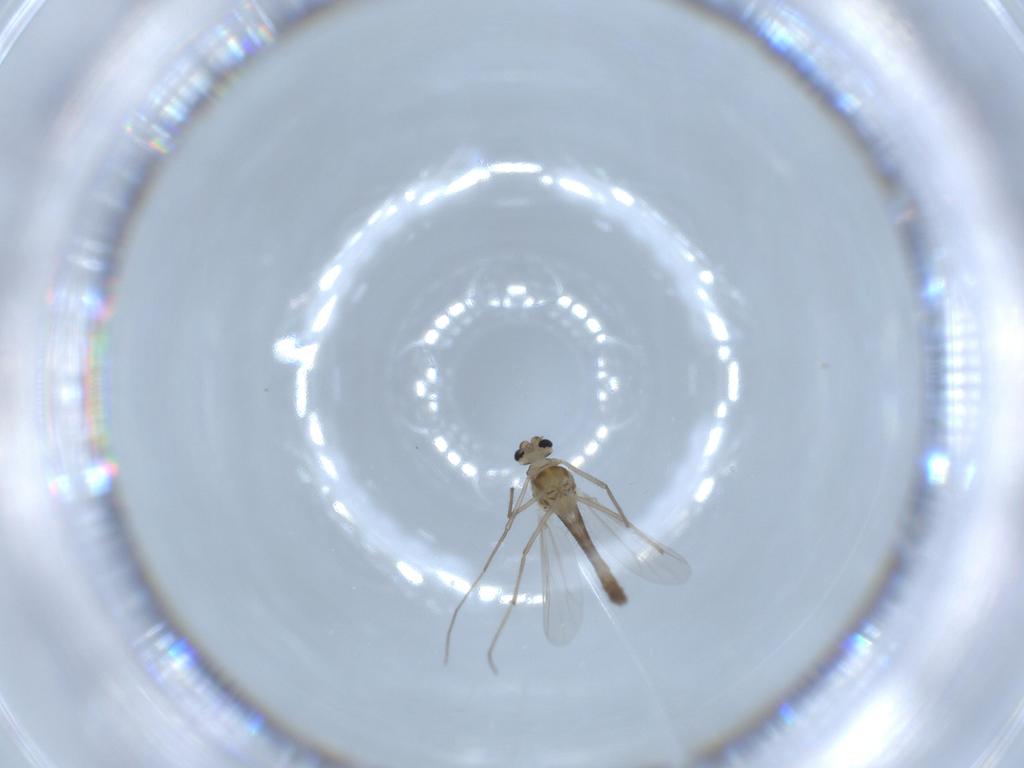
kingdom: Animalia
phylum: Arthropoda
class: Insecta
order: Diptera
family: Chironomidae
